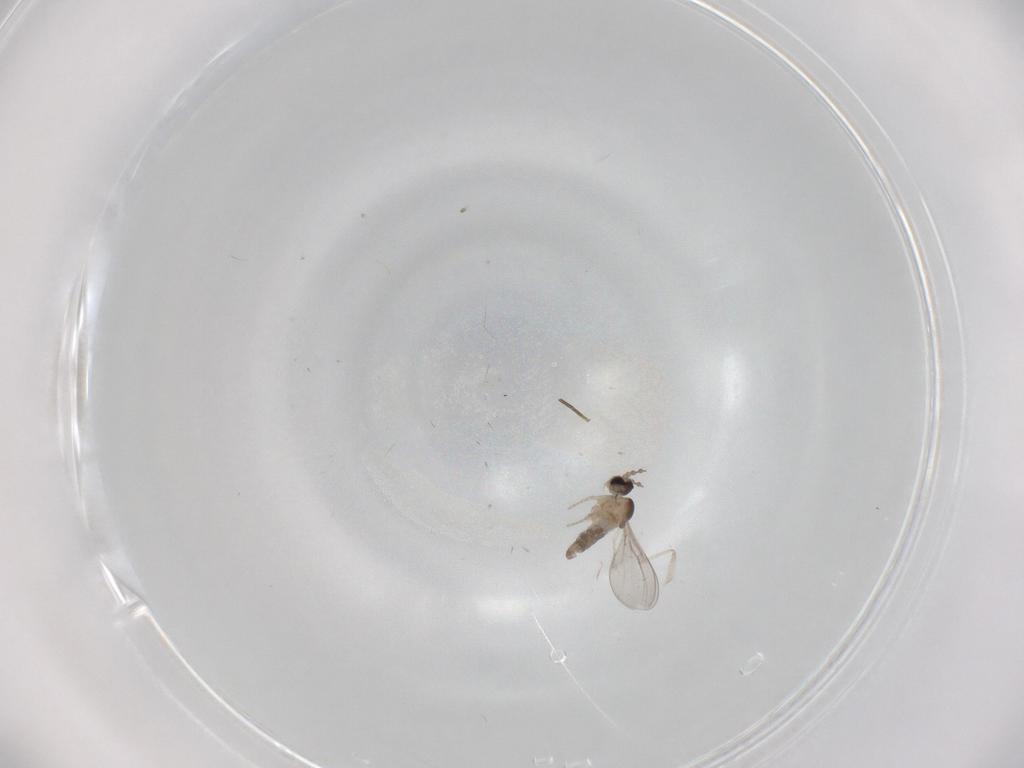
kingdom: Animalia
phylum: Arthropoda
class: Insecta
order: Diptera
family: Cecidomyiidae
